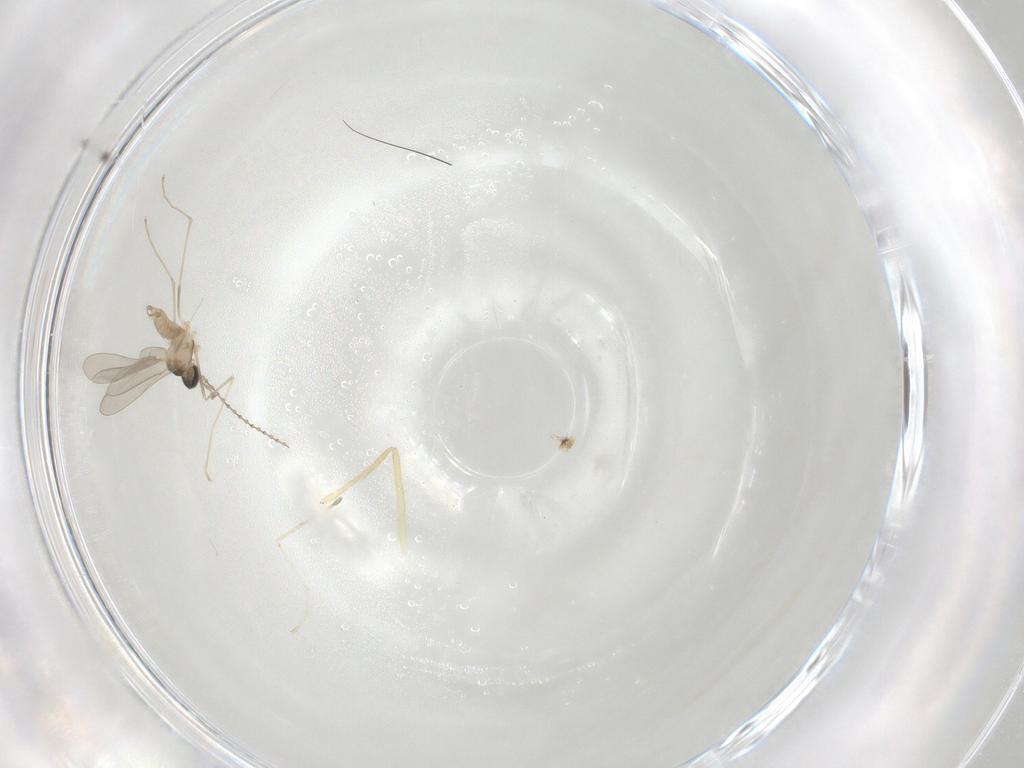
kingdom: Animalia
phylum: Arthropoda
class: Insecta
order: Diptera
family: Cecidomyiidae
